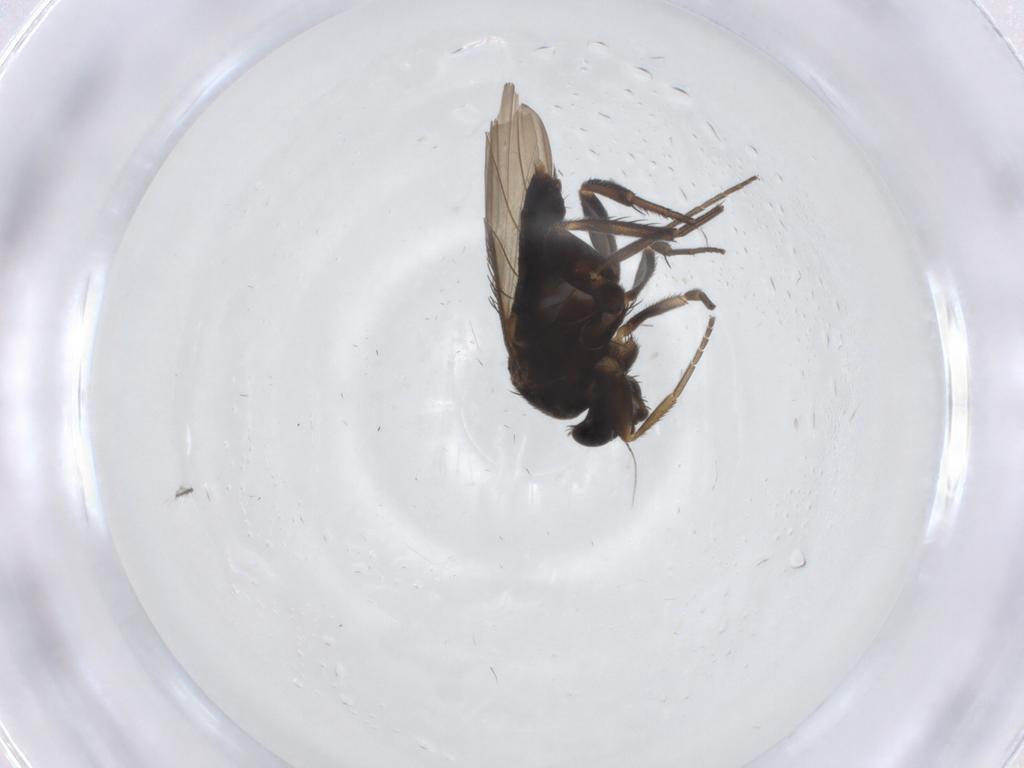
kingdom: Animalia
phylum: Arthropoda
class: Insecta
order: Diptera
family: Phoridae
